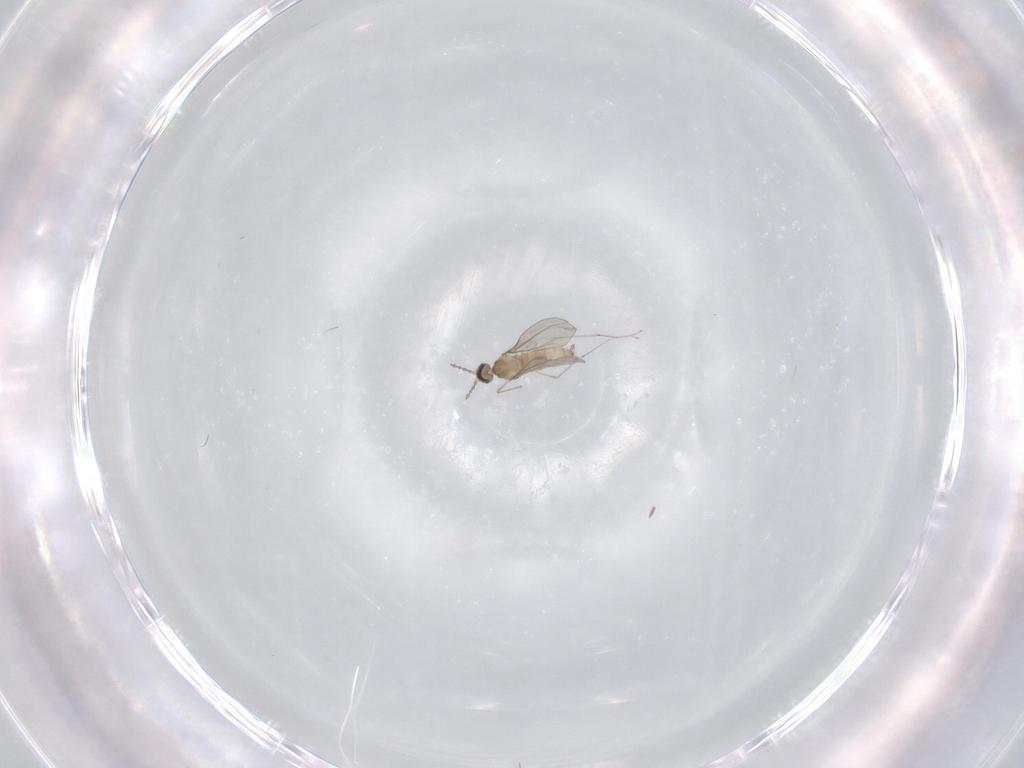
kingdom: Animalia
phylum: Arthropoda
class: Insecta
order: Diptera
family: Cecidomyiidae
